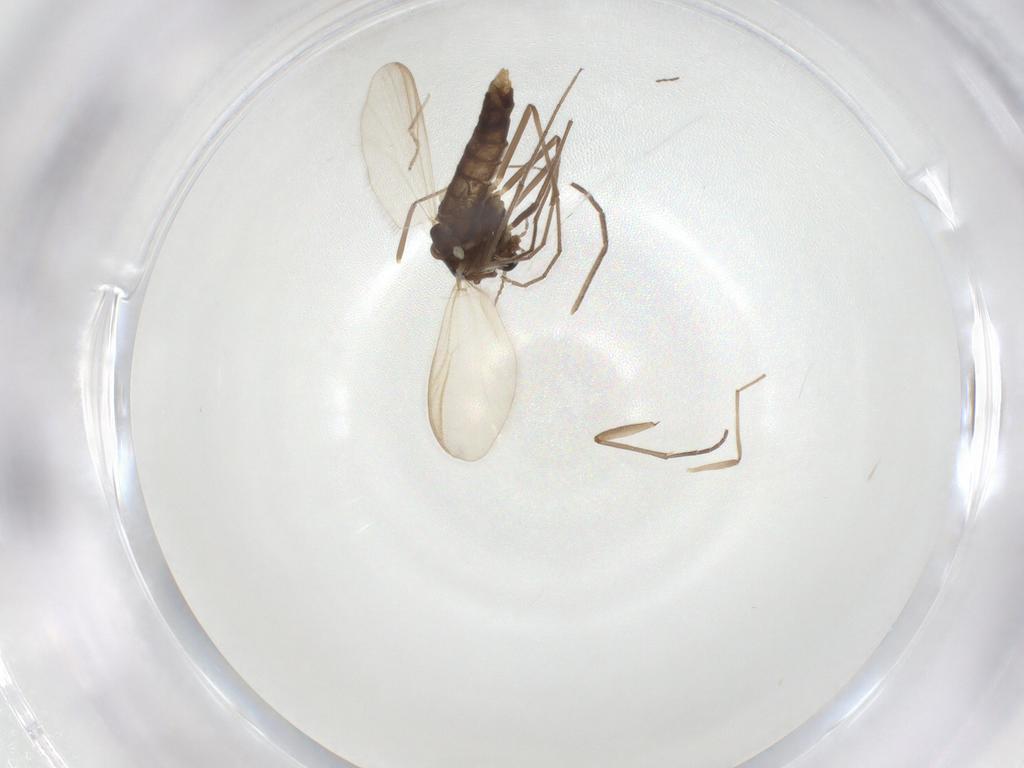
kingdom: Animalia
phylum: Arthropoda
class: Insecta
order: Diptera
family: Chironomidae
